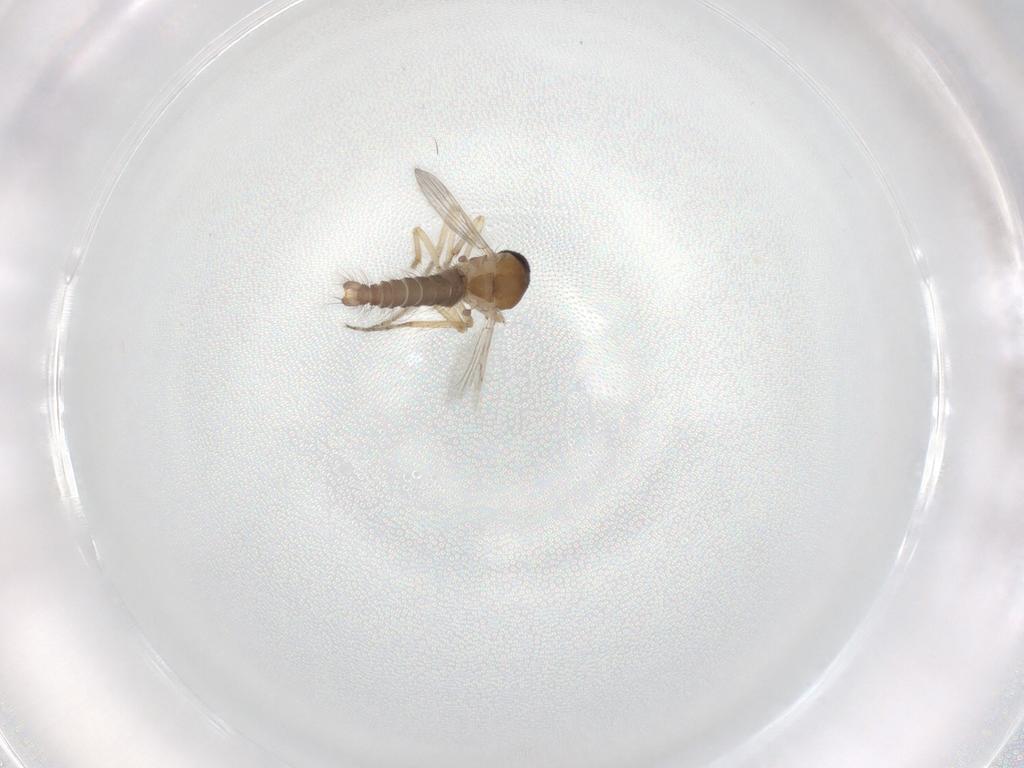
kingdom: Animalia
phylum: Arthropoda
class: Insecta
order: Diptera
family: Ceratopogonidae
